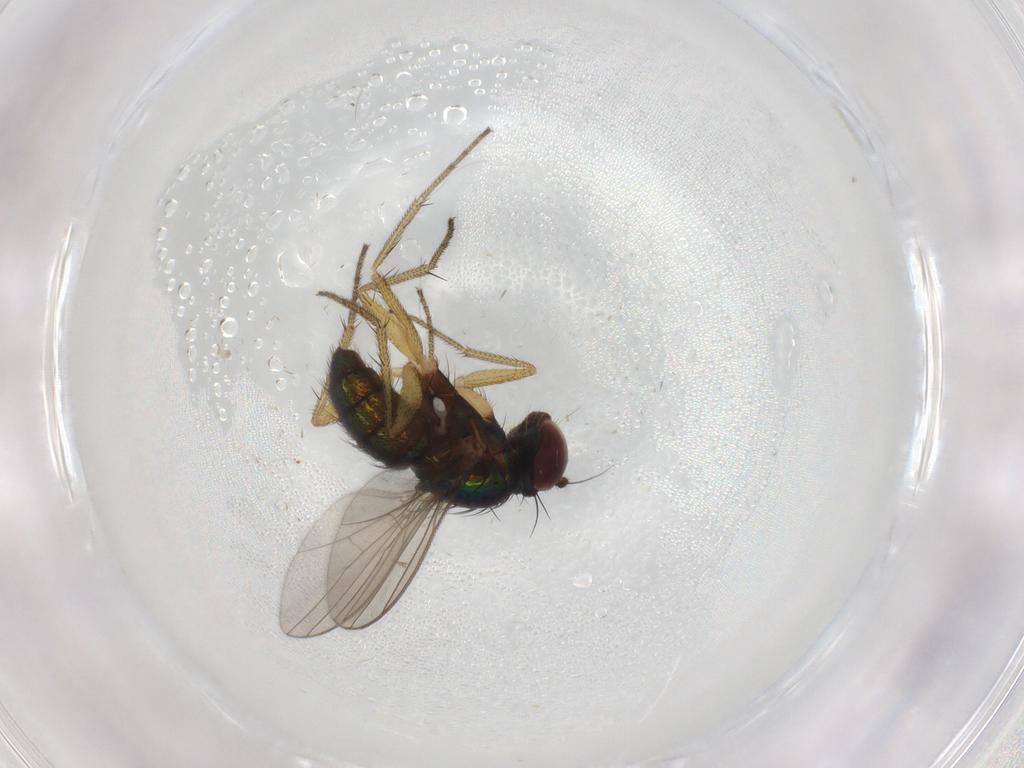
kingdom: Animalia
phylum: Arthropoda
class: Insecta
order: Diptera
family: Dolichopodidae
